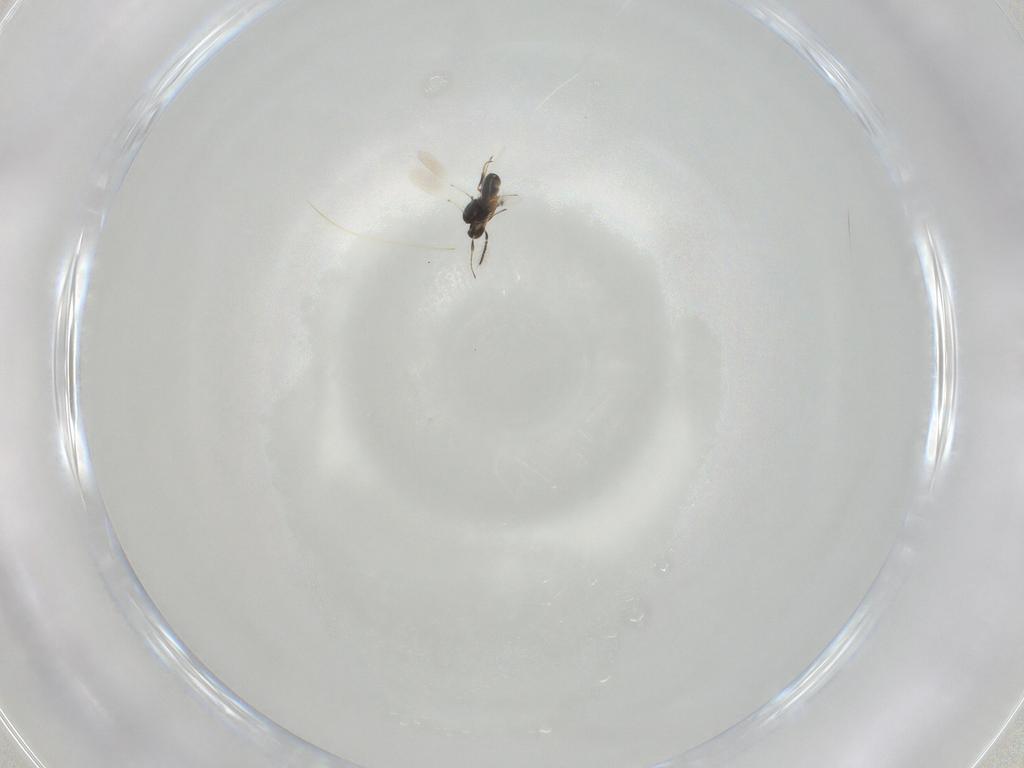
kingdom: Animalia
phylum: Arthropoda
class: Insecta
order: Hymenoptera
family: Platygastridae
